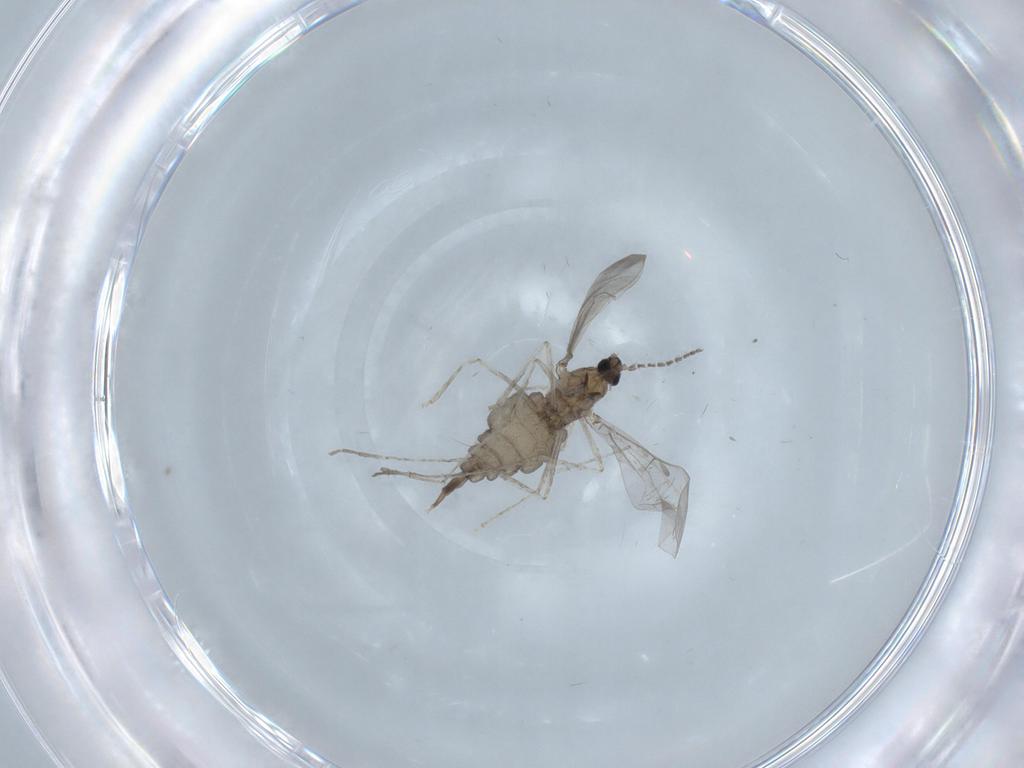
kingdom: Animalia
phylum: Arthropoda
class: Insecta
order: Diptera
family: Cecidomyiidae
